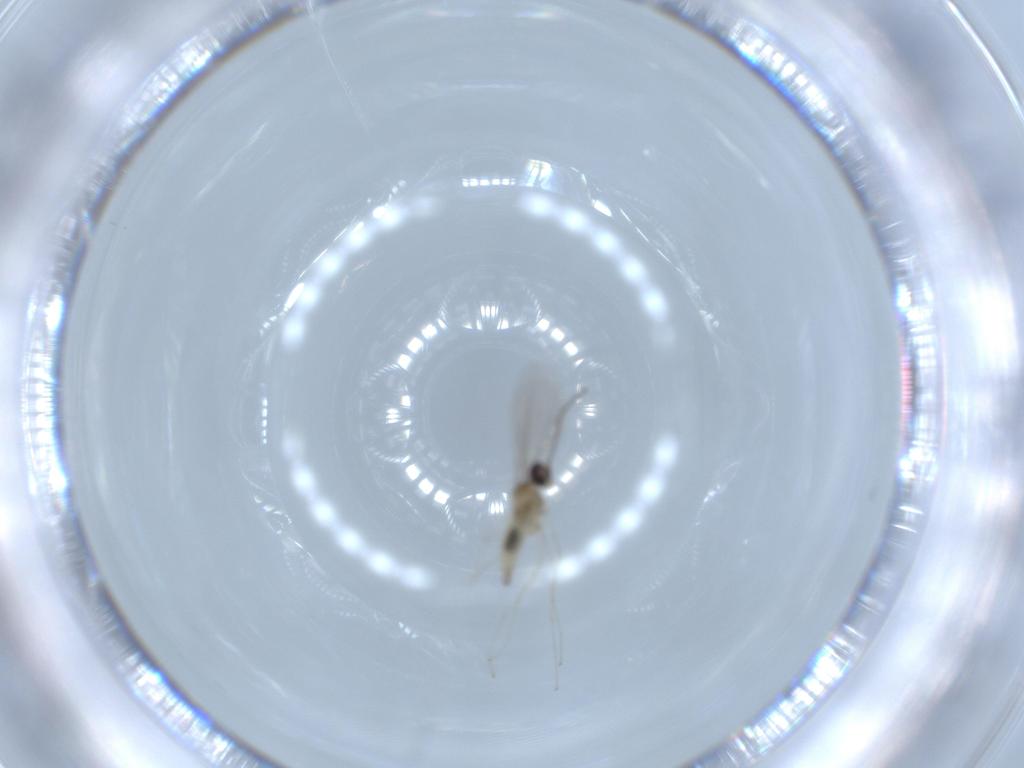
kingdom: Animalia
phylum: Arthropoda
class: Insecta
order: Diptera
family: Cecidomyiidae
